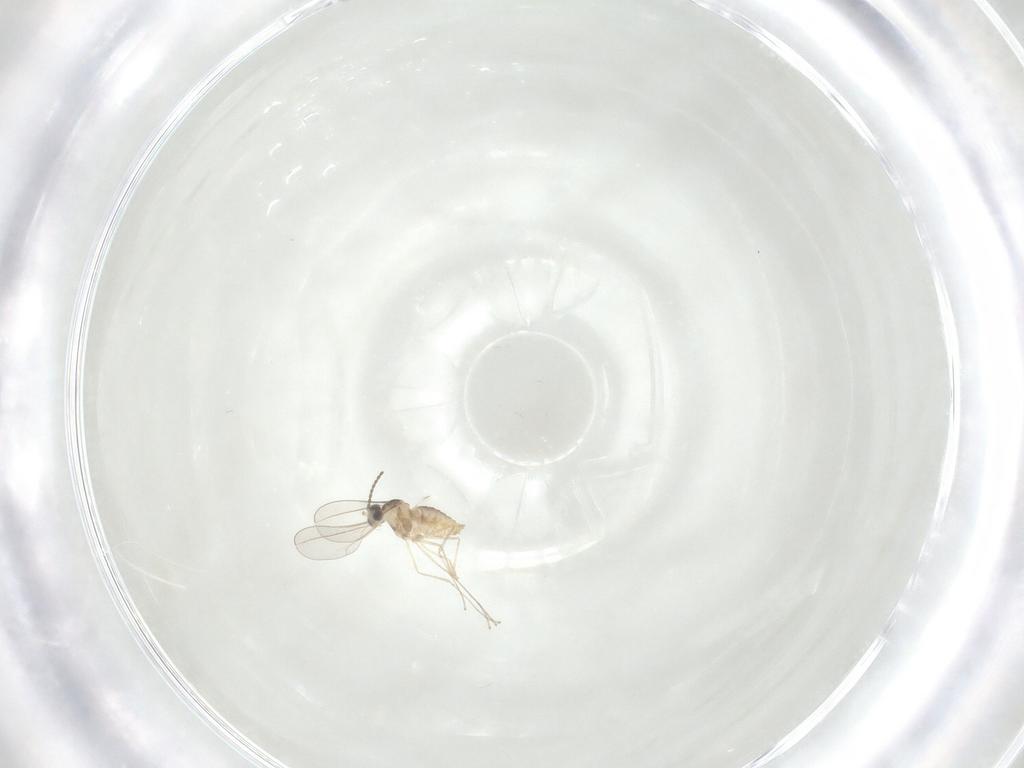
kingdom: Animalia
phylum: Arthropoda
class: Insecta
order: Diptera
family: Cecidomyiidae
